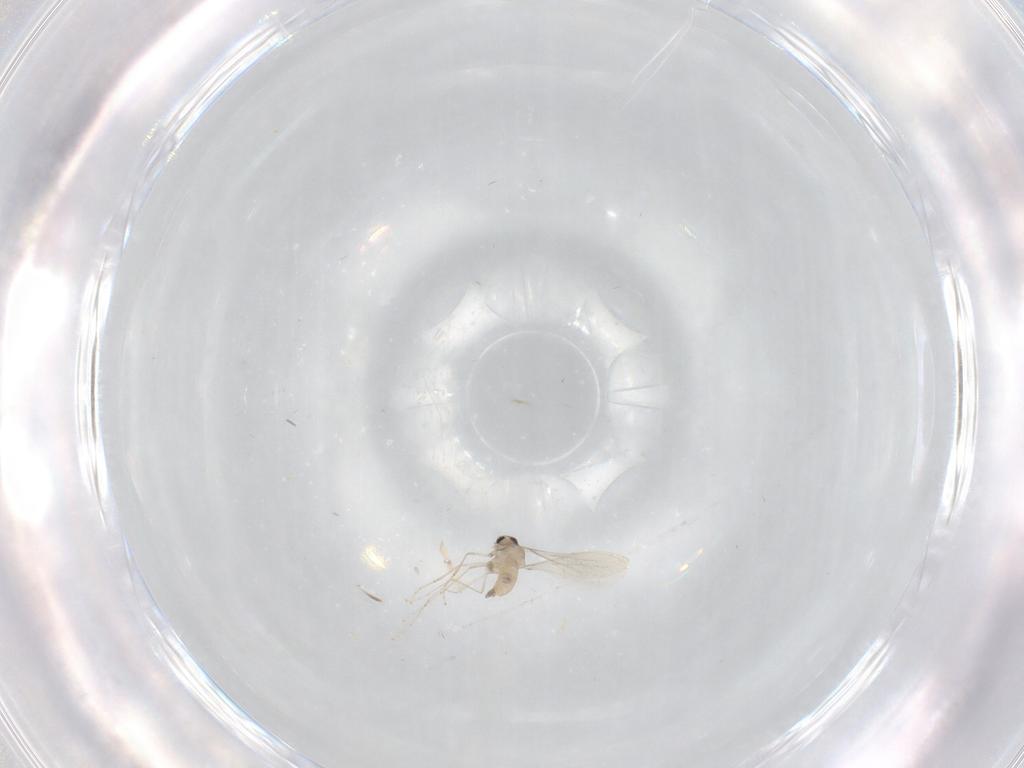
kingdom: Animalia
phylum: Arthropoda
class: Insecta
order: Diptera
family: Cecidomyiidae
